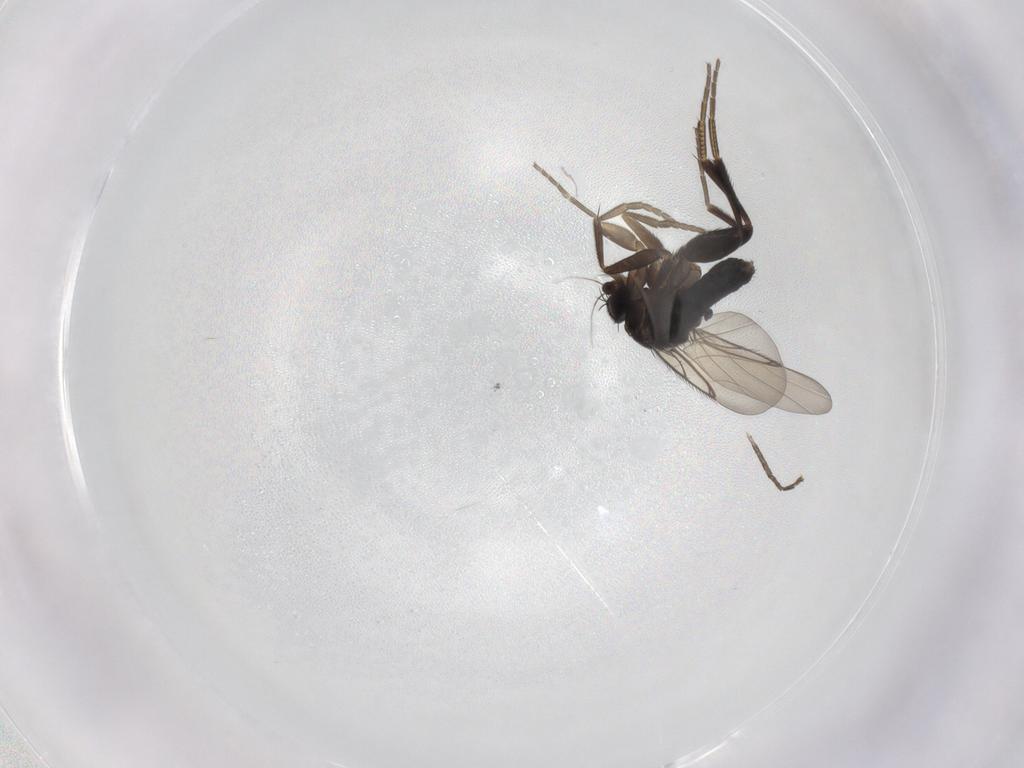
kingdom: Animalia
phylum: Arthropoda
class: Insecta
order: Diptera
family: Phoridae
